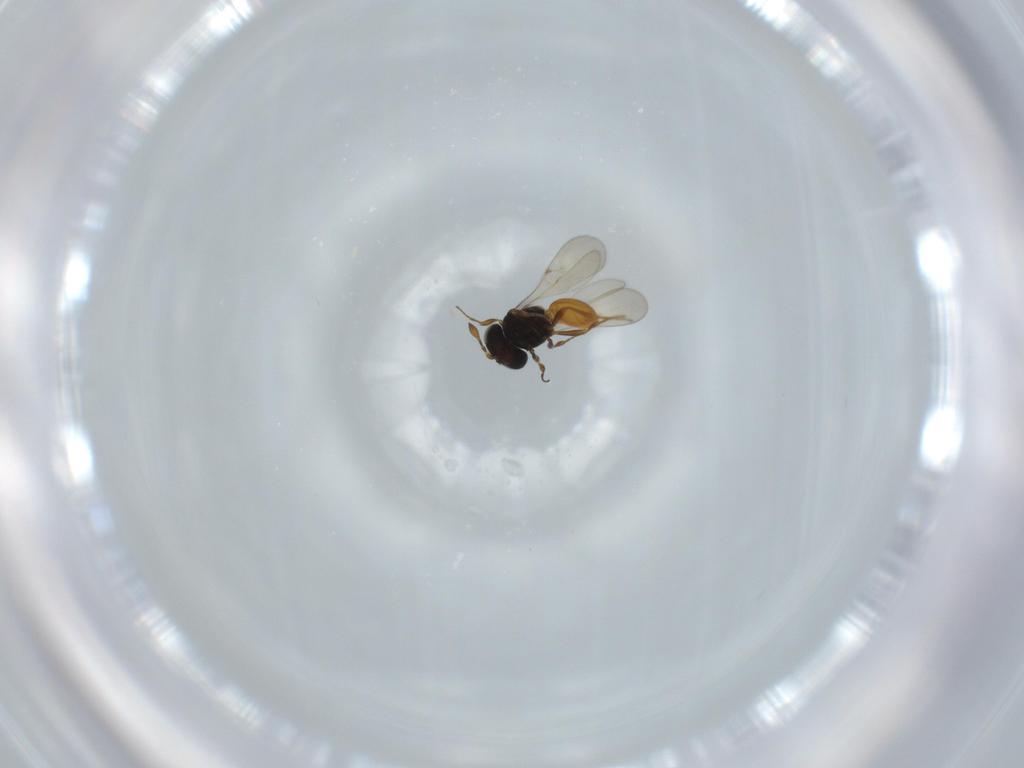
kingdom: Animalia
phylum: Arthropoda
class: Insecta
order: Hymenoptera
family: Scelionidae
